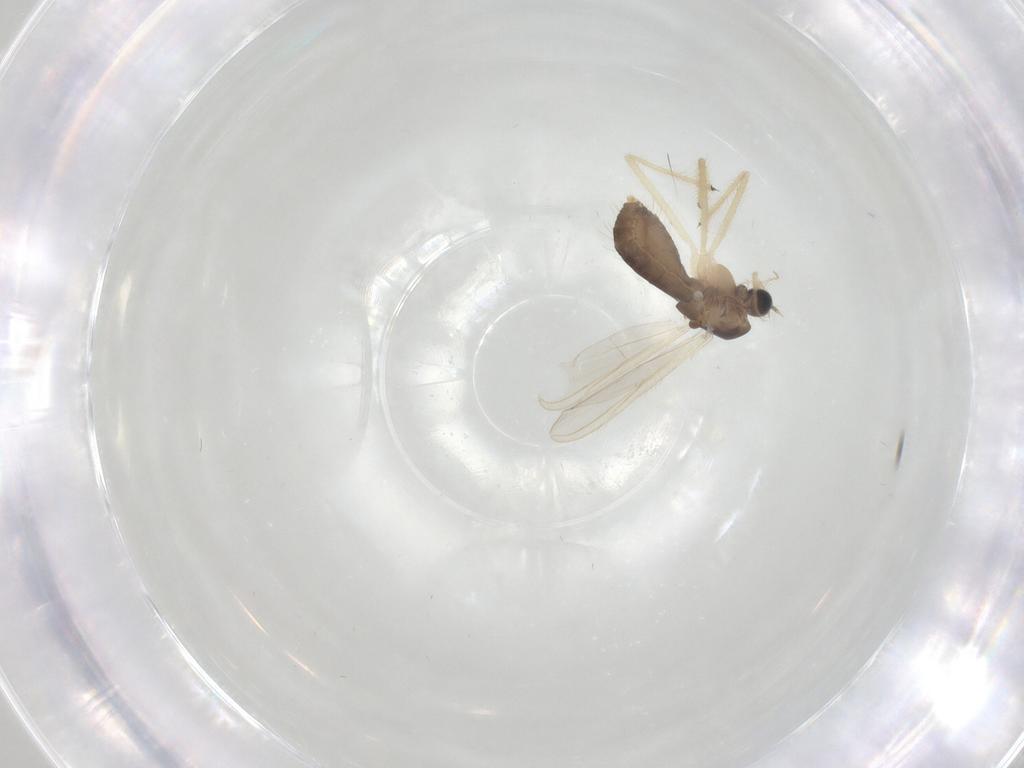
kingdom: Animalia
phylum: Arthropoda
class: Insecta
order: Diptera
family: Chironomidae
